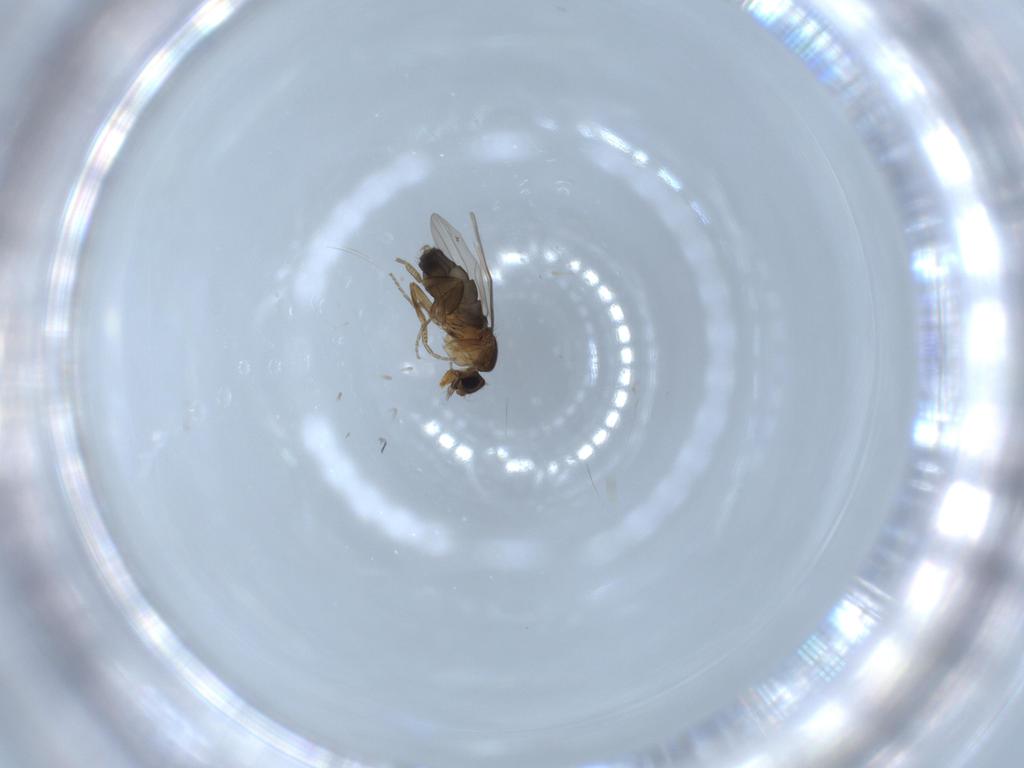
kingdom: Animalia
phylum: Arthropoda
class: Insecta
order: Diptera
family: Phoridae
